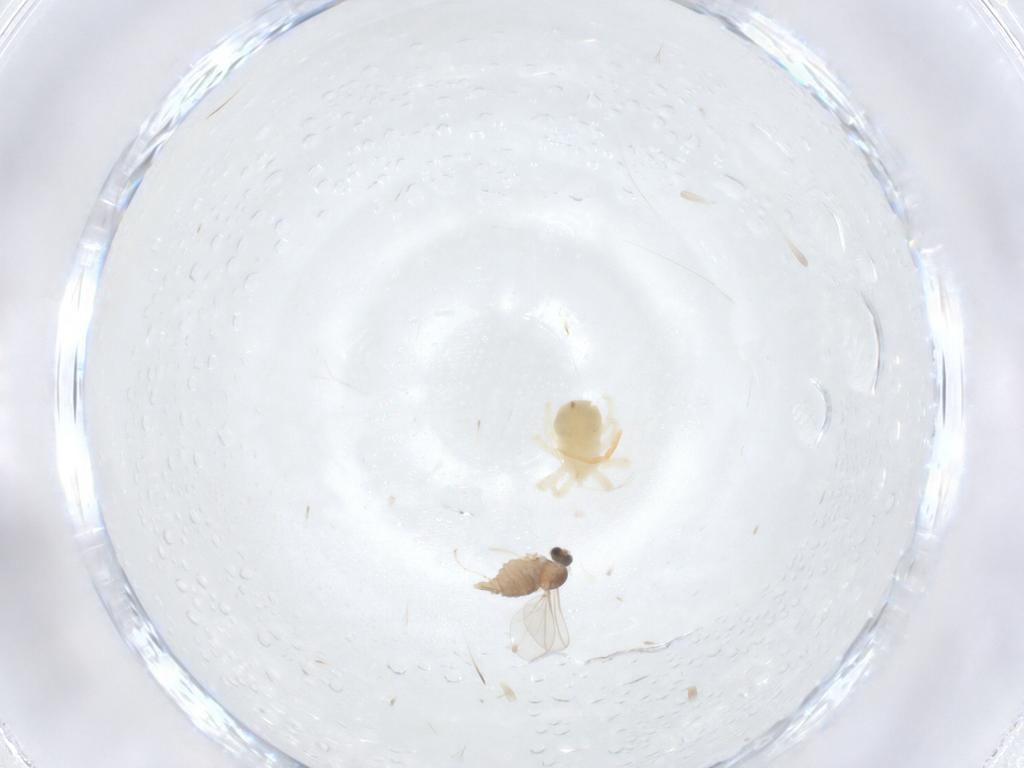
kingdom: Animalia
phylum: Arthropoda
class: Arachnida
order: Trombidiformes
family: Anystidae
